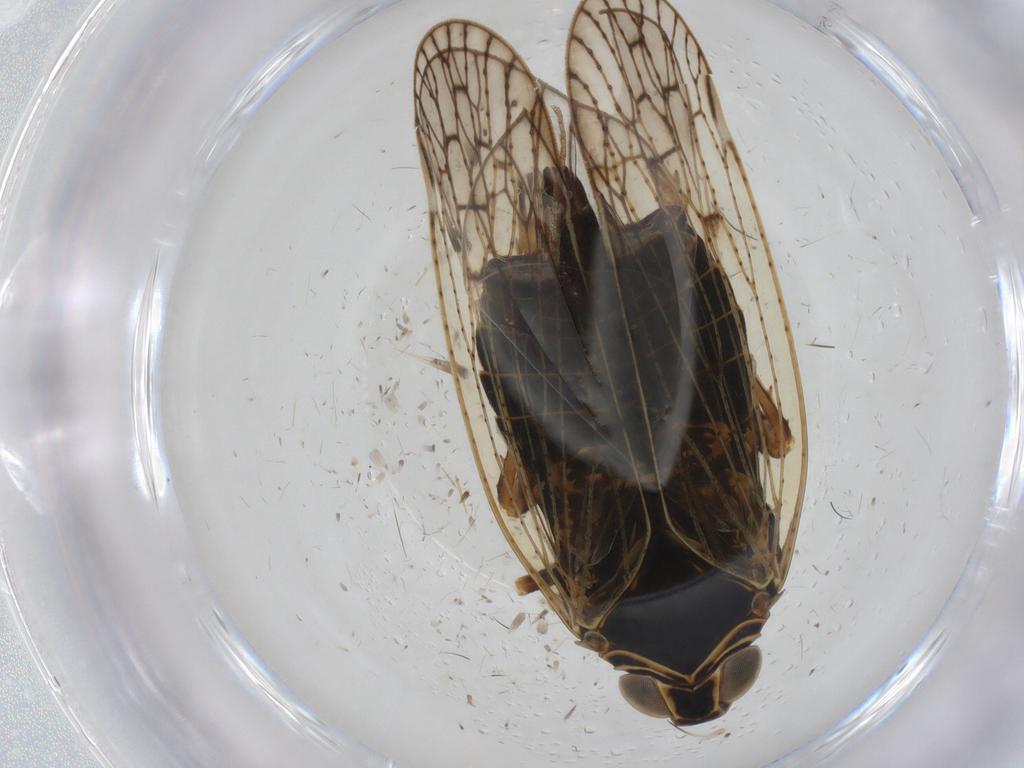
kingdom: Animalia
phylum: Arthropoda
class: Insecta
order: Hemiptera
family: Cixiidae
